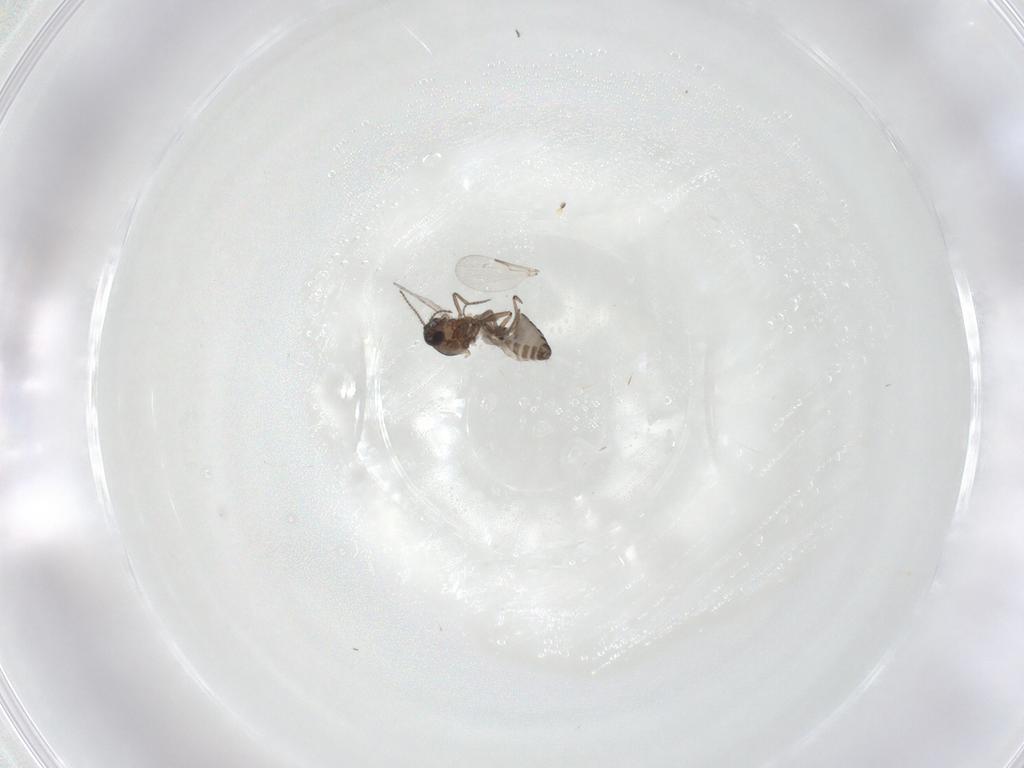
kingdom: Animalia
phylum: Arthropoda
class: Insecta
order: Diptera
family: Ceratopogonidae
